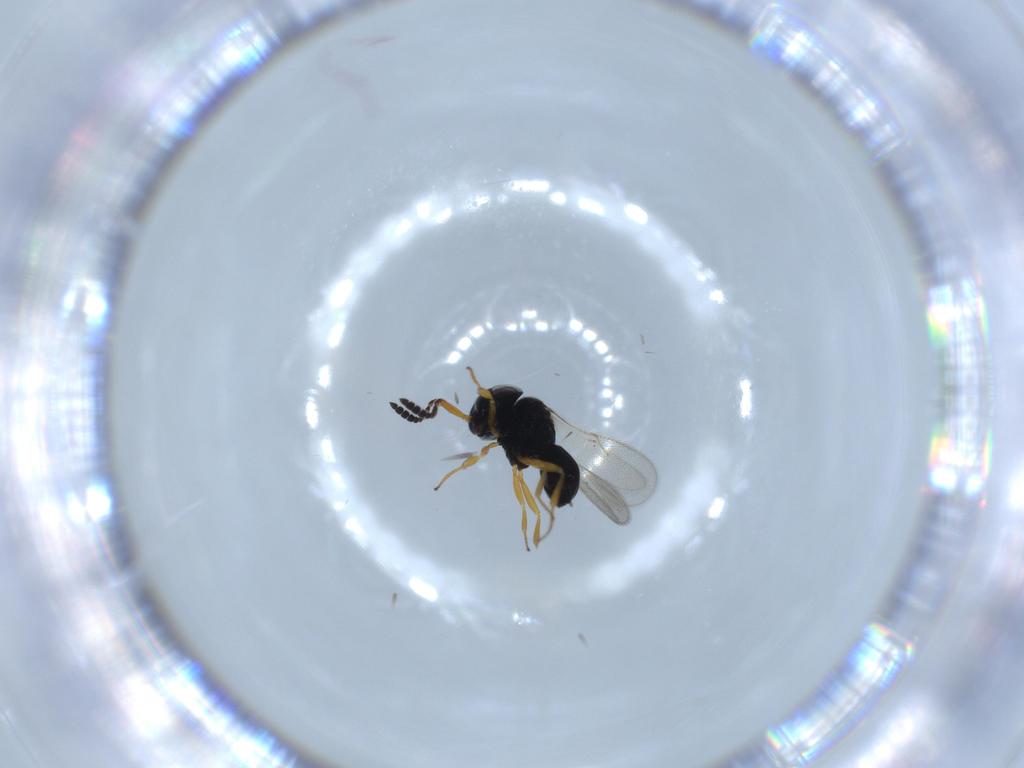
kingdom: Animalia
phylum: Arthropoda
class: Insecta
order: Hymenoptera
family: Scelionidae
